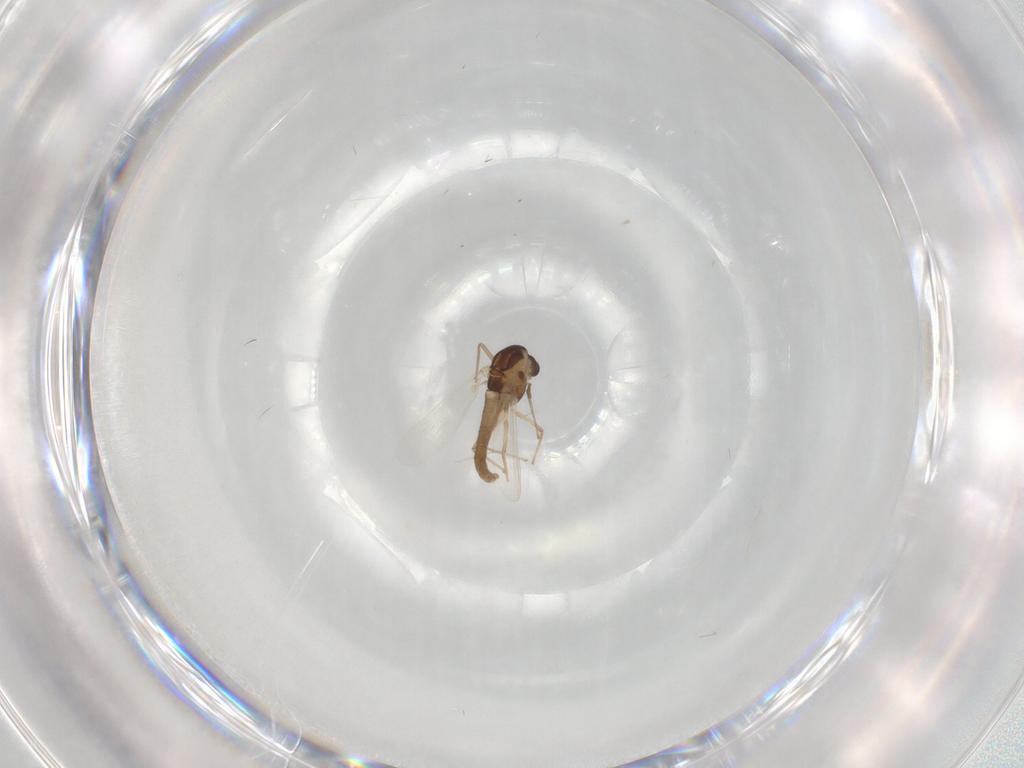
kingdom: Animalia
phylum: Arthropoda
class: Insecta
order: Diptera
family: Chironomidae
